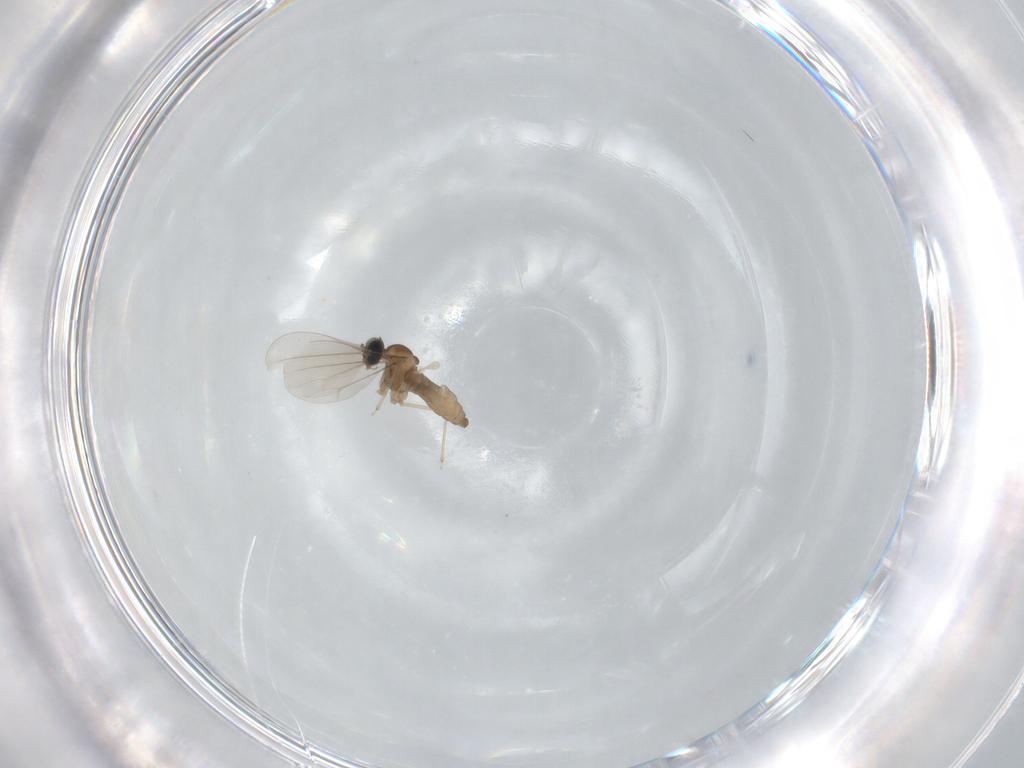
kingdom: Animalia
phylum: Arthropoda
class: Insecta
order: Diptera
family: Cecidomyiidae
